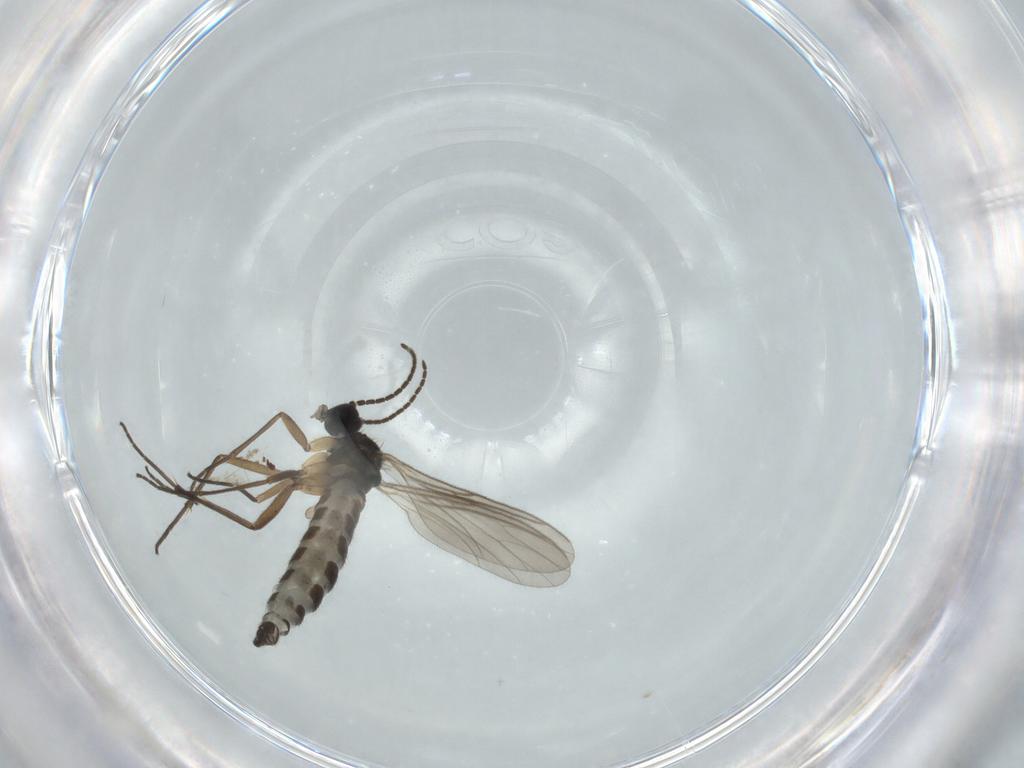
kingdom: Animalia
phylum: Arthropoda
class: Insecta
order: Diptera
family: Sciaridae
